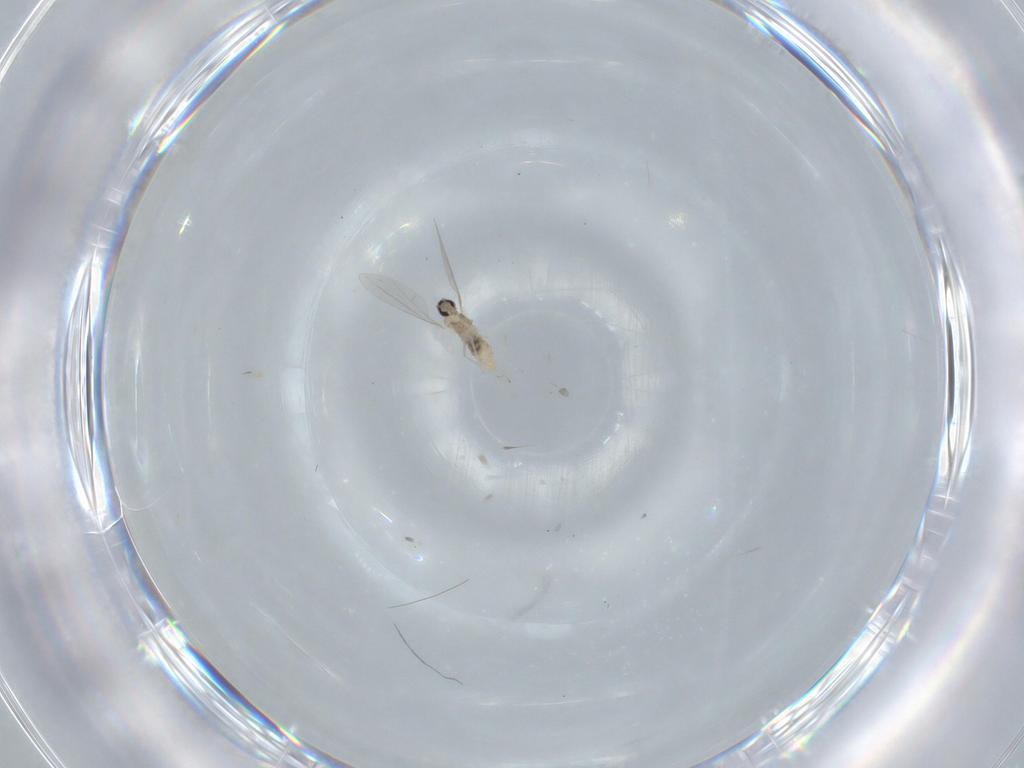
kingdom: Animalia
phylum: Arthropoda
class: Insecta
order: Diptera
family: Cecidomyiidae
